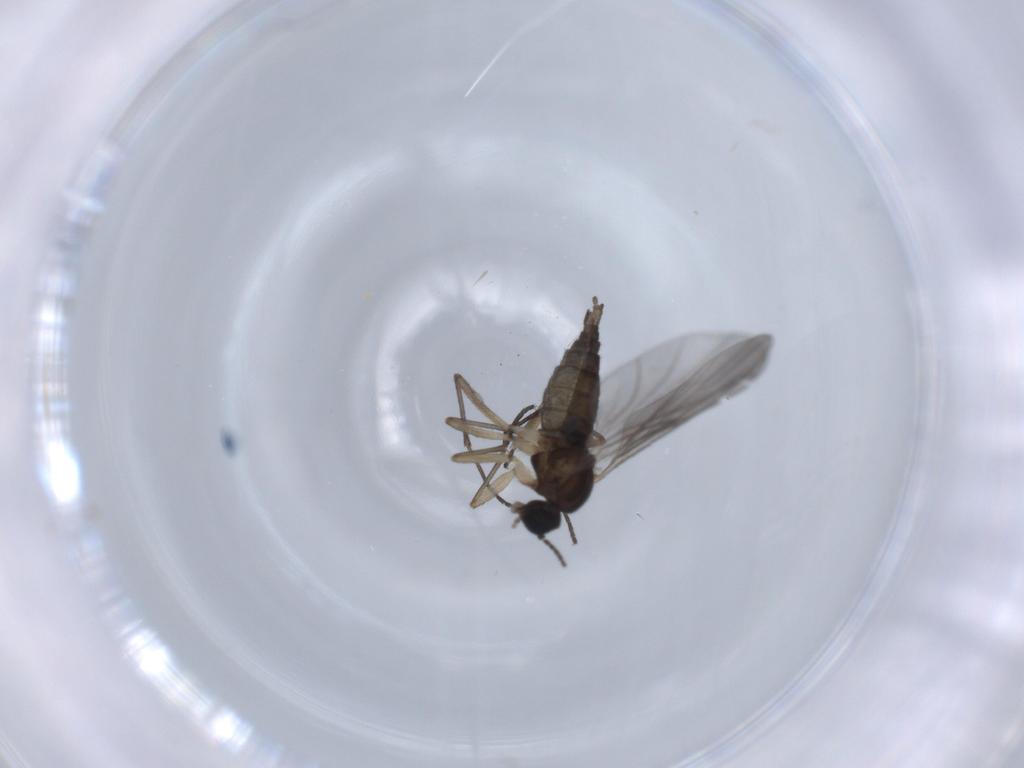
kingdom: Animalia
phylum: Arthropoda
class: Insecta
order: Diptera
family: Sciaridae
